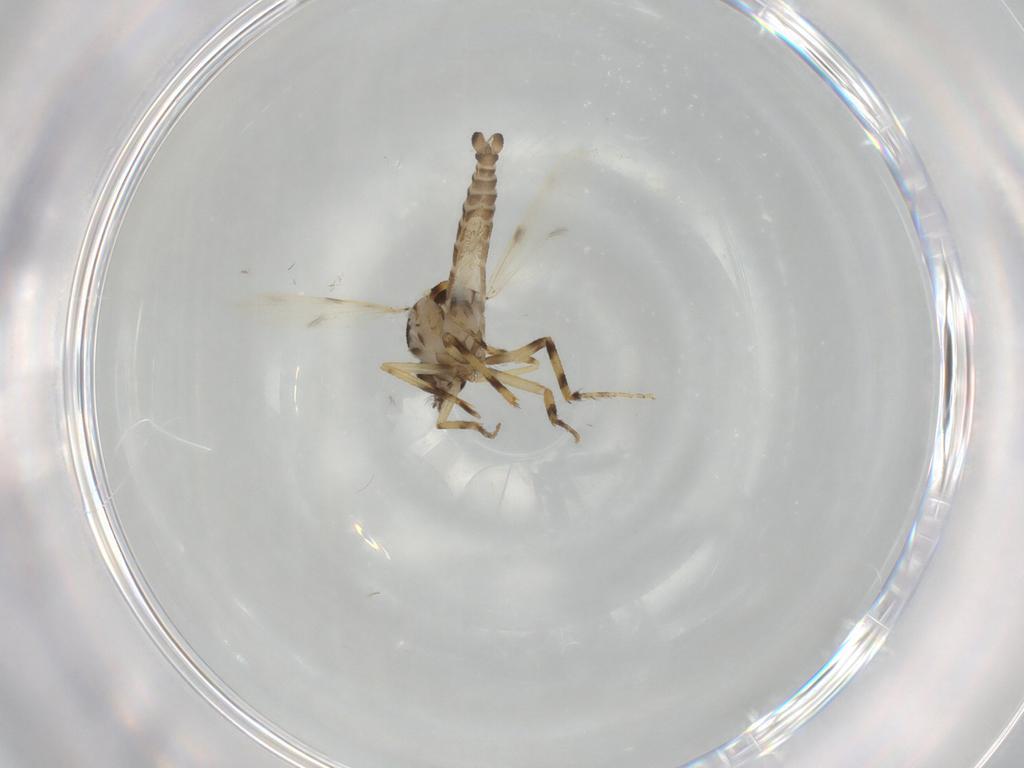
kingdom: Animalia
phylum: Arthropoda
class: Insecta
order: Diptera
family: Ceratopogonidae
